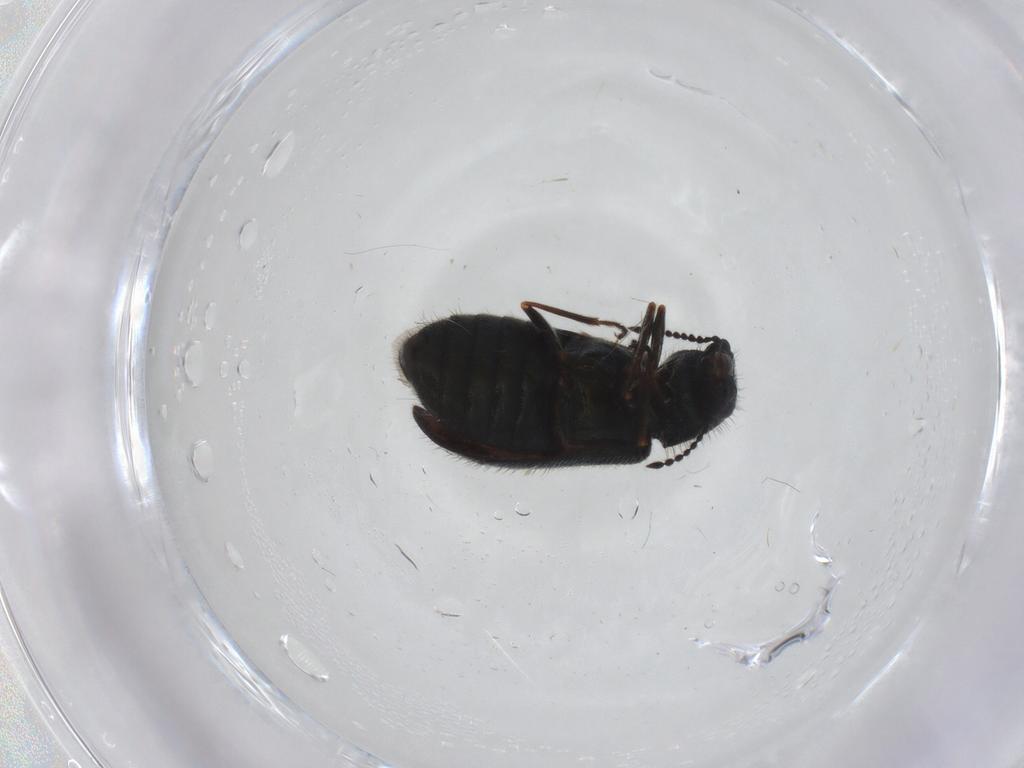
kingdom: Animalia
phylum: Arthropoda
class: Insecta
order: Coleoptera
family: Melyridae
